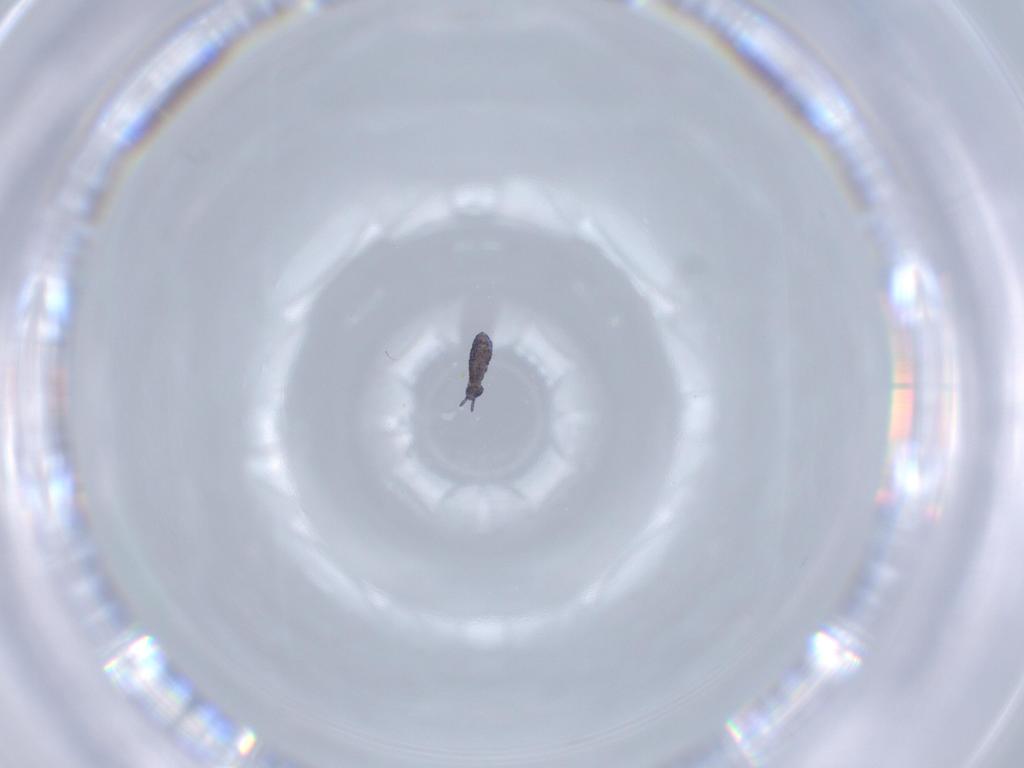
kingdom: Animalia
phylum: Arthropoda
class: Collembola
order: Poduromorpha
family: Brachystomellidae
